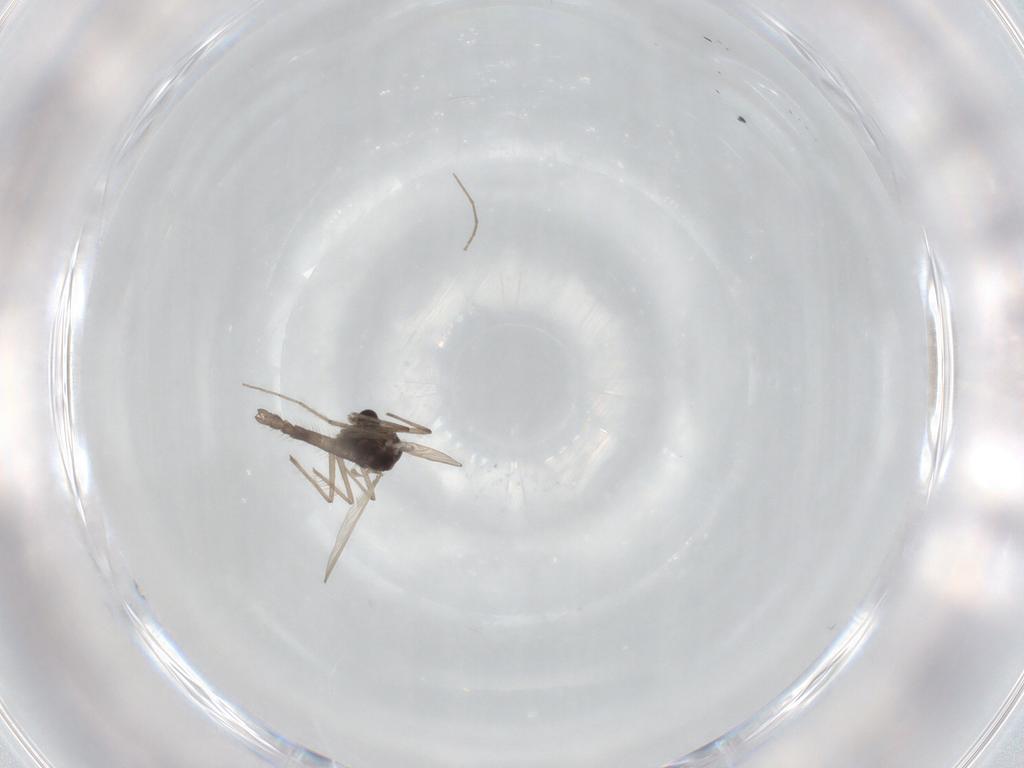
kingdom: Animalia
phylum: Arthropoda
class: Insecta
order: Diptera
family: Chironomidae
